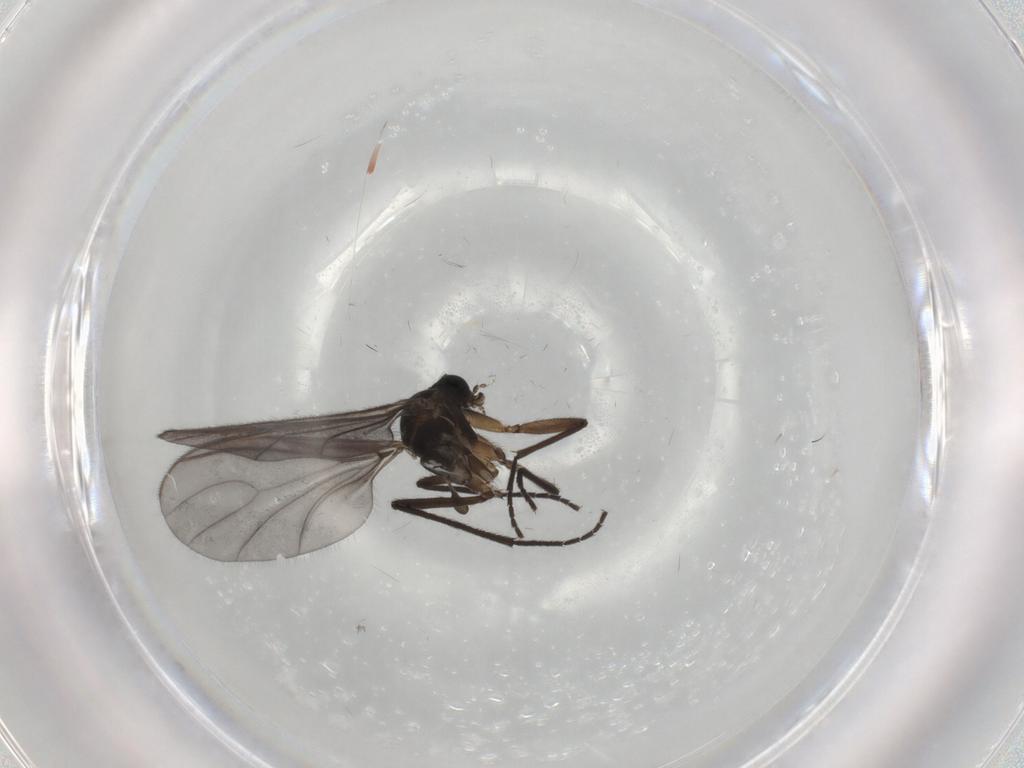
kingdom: Animalia
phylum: Arthropoda
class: Insecta
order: Diptera
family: Sciaridae
